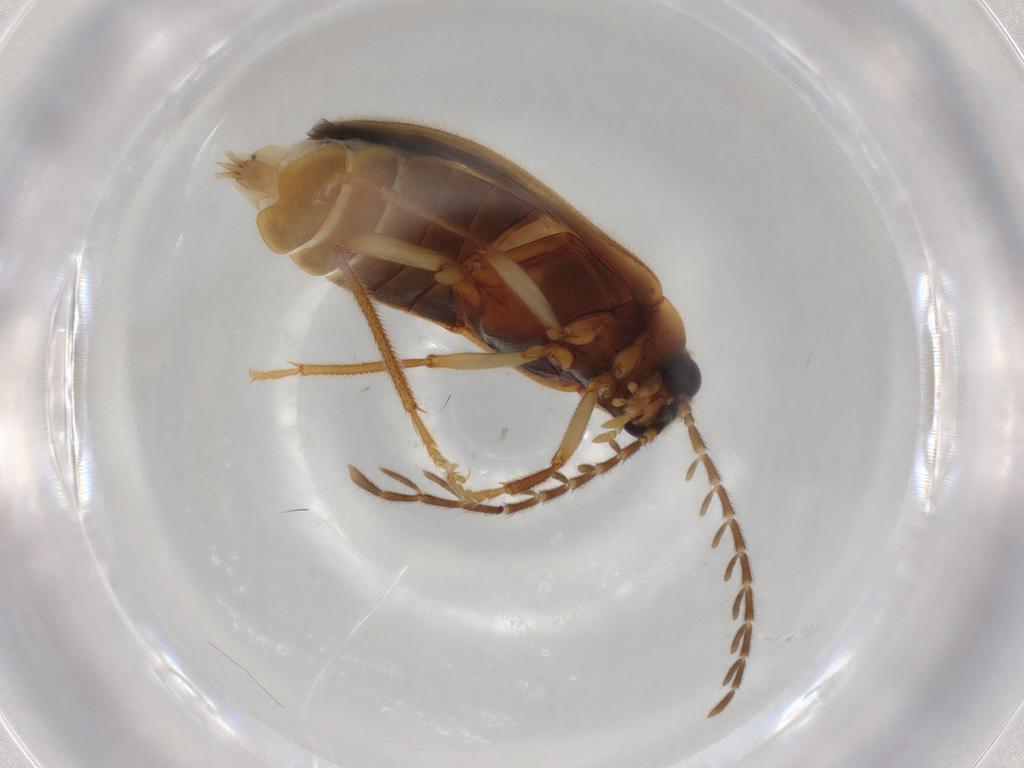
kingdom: Animalia
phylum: Arthropoda
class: Insecta
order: Coleoptera
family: Ptilodactylidae
